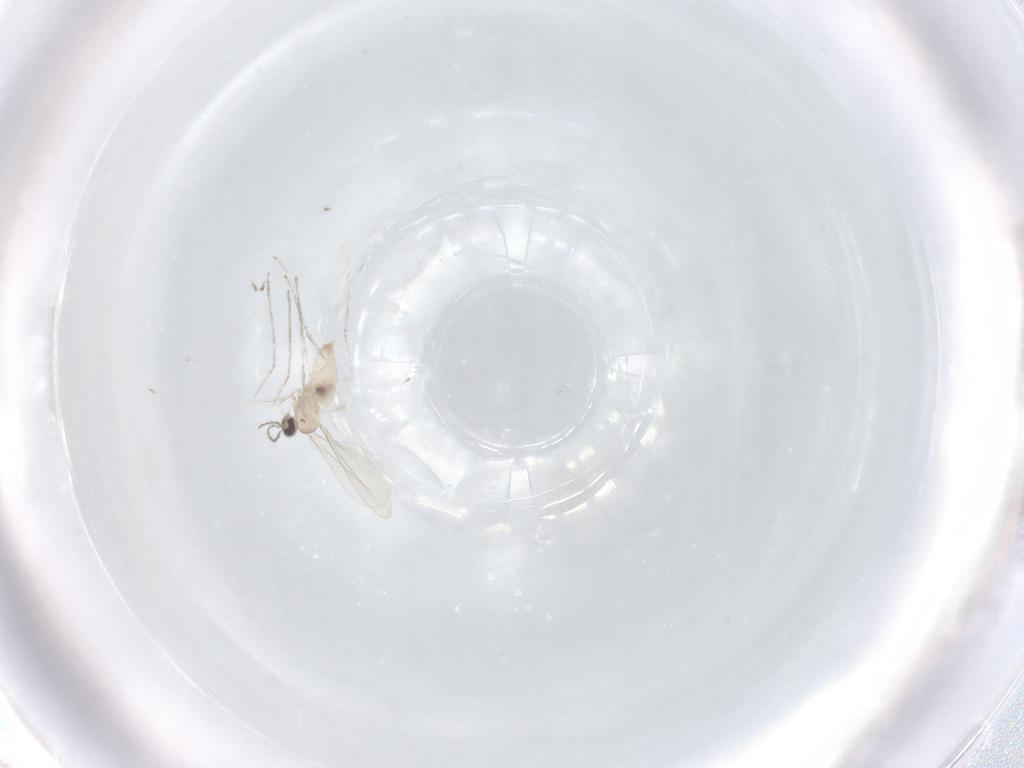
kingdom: Animalia
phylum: Arthropoda
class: Insecta
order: Diptera
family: Cecidomyiidae
